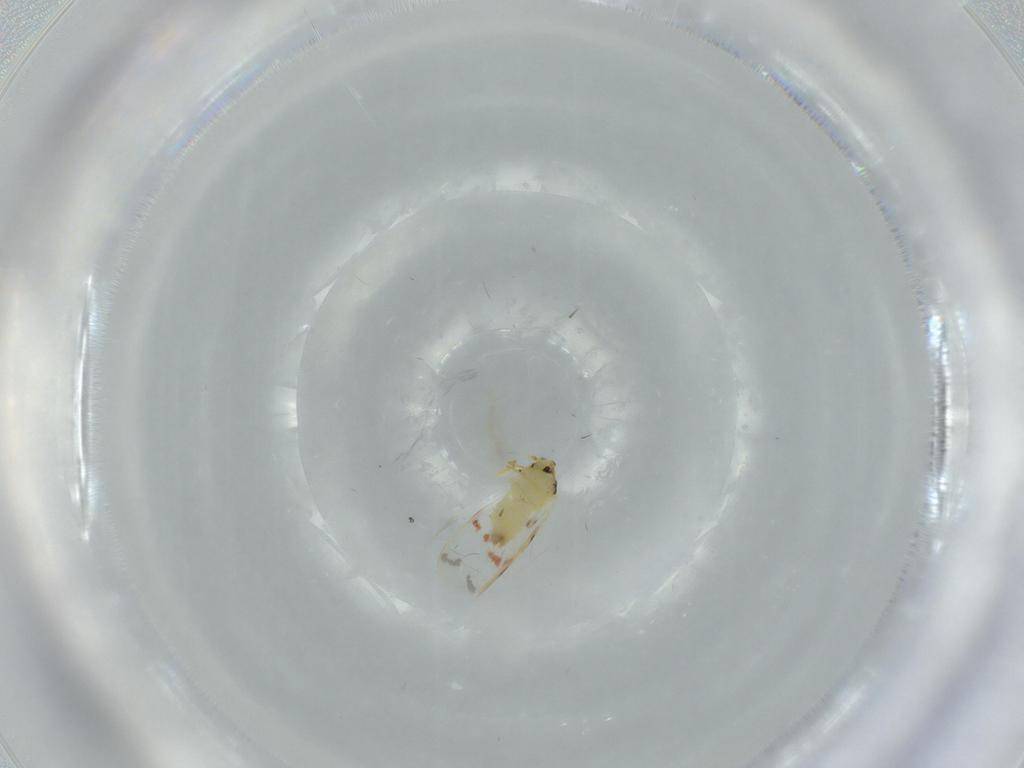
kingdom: Animalia
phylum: Arthropoda
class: Insecta
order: Hemiptera
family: Aleyrodidae
